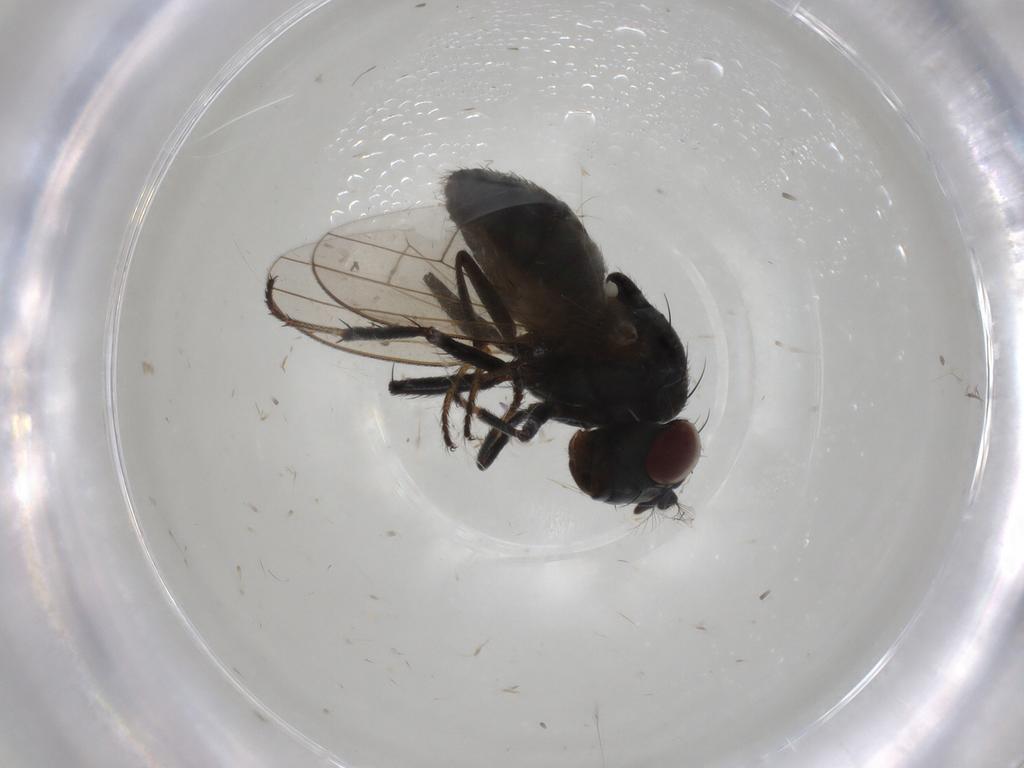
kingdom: Animalia
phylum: Arthropoda
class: Insecta
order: Diptera
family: Ephydridae
